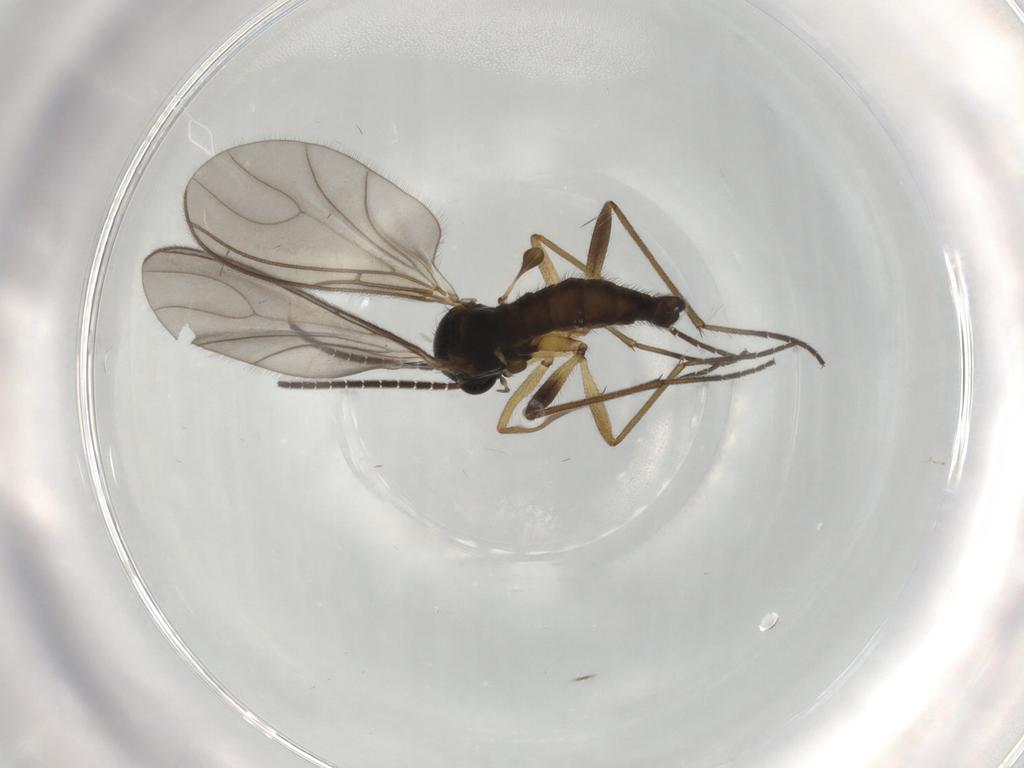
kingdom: Animalia
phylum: Arthropoda
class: Insecta
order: Diptera
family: Sciaridae
